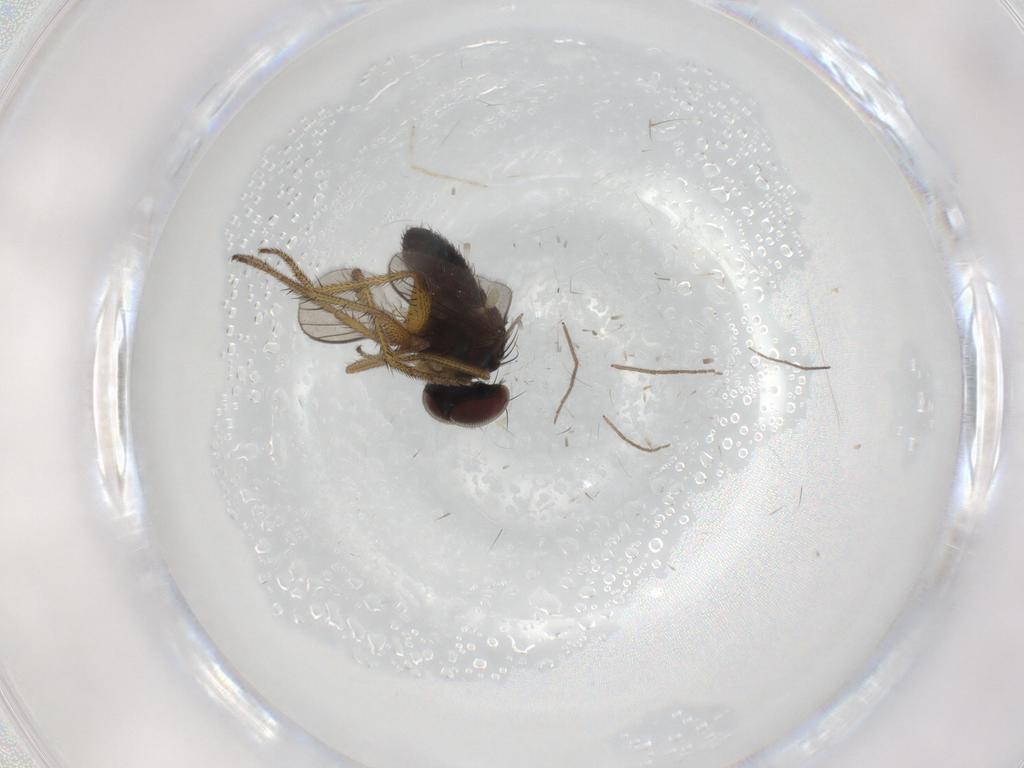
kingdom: Animalia
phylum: Arthropoda
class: Insecta
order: Diptera
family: Chironomidae
